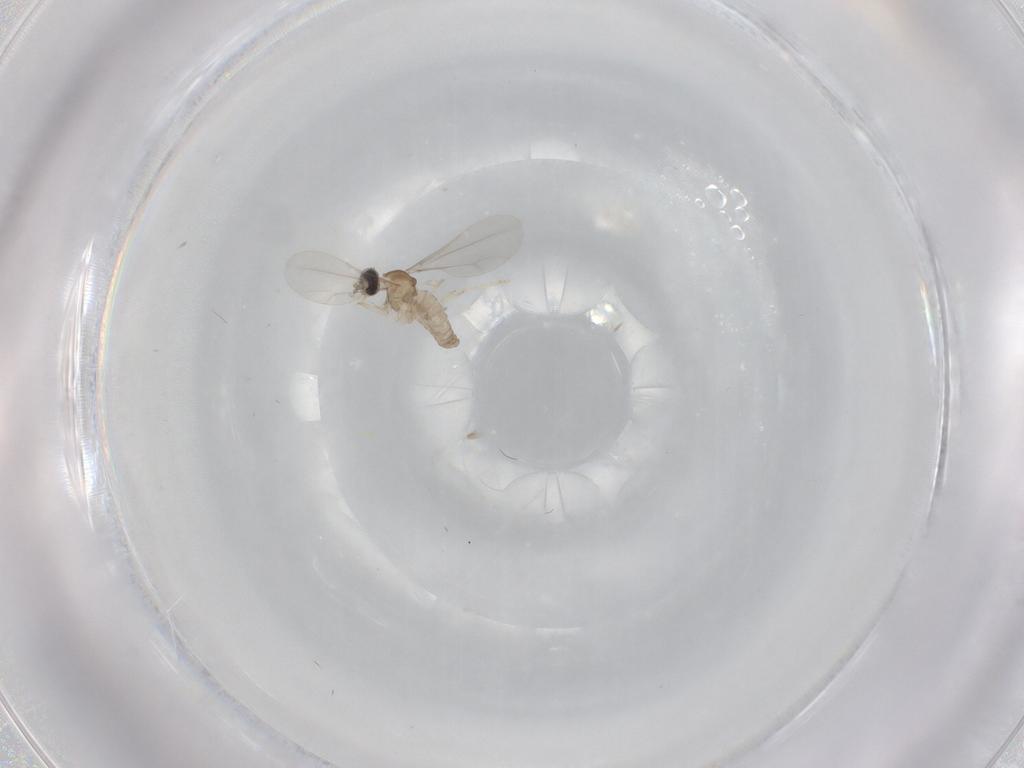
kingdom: Animalia
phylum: Arthropoda
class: Insecta
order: Diptera
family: Cecidomyiidae
